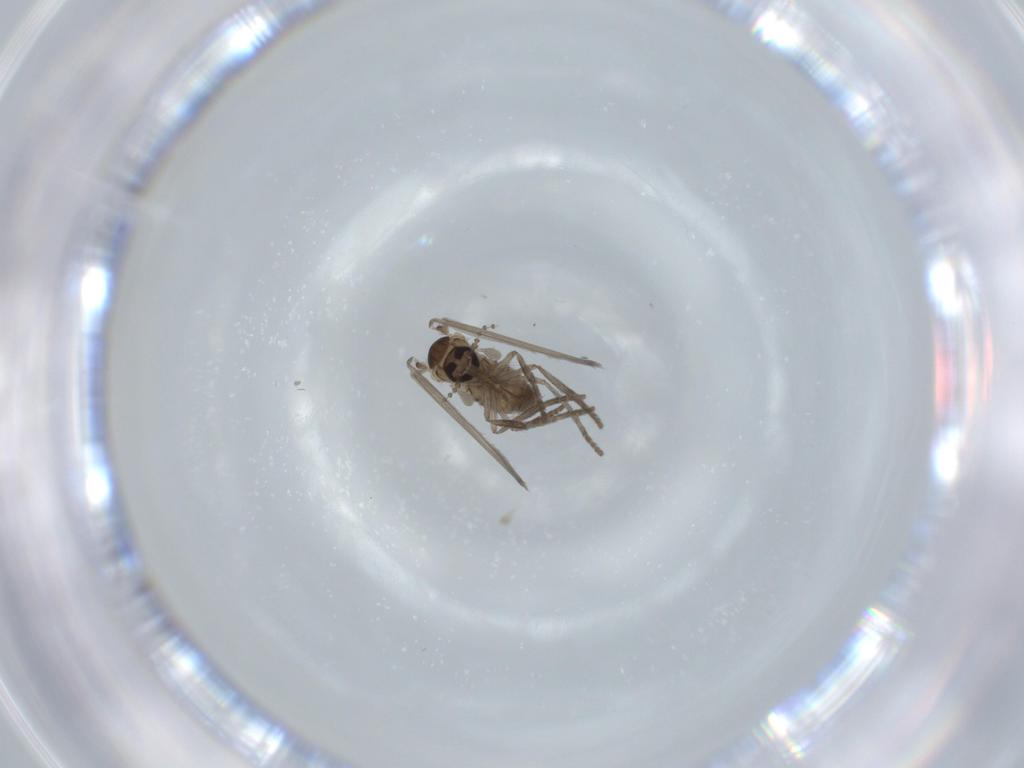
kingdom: Animalia
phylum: Arthropoda
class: Insecta
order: Diptera
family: Psychodidae
